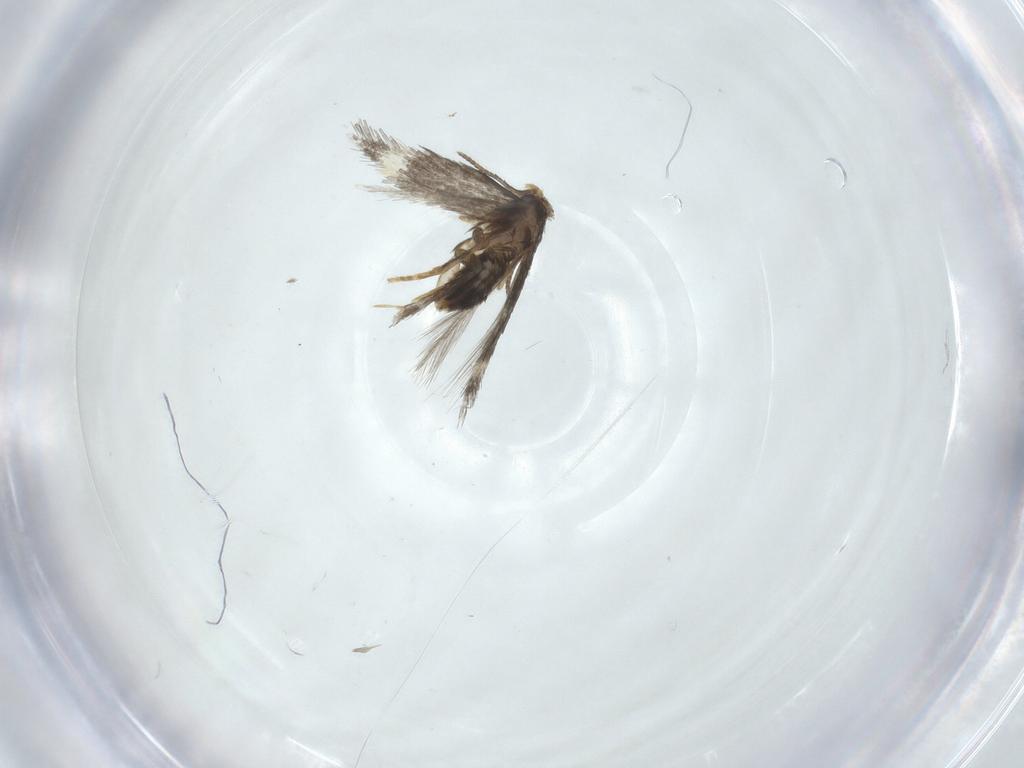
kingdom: Animalia
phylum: Arthropoda
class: Insecta
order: Lepidoptera
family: Nepticulidae
